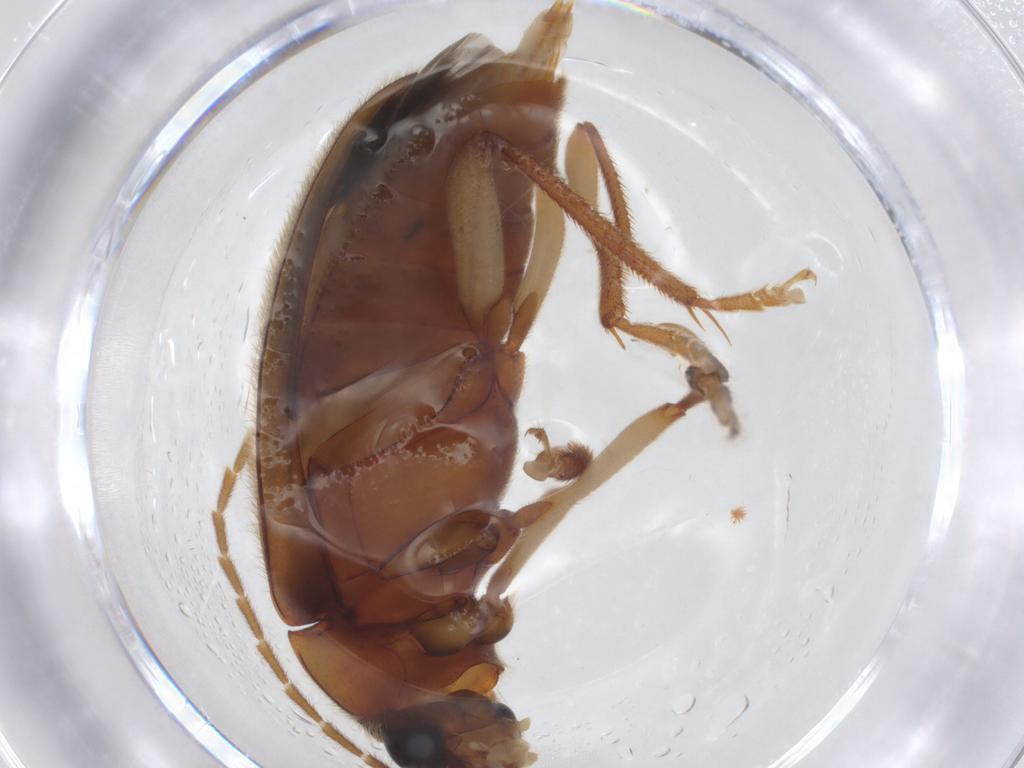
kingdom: Animalia
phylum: Arthropoda
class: Insecta
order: Coleoptera
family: Ptilodactylidae
